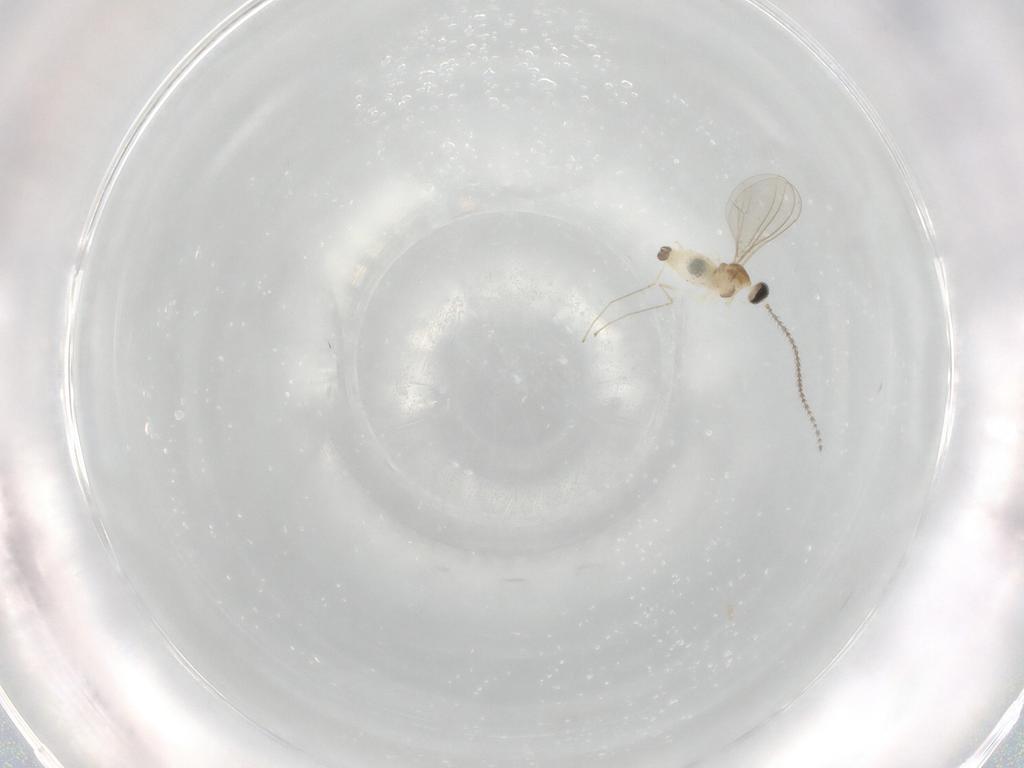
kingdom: Animalia
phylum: Arthropoda
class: Insecta
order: Diptera
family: Cecidomyiidae
